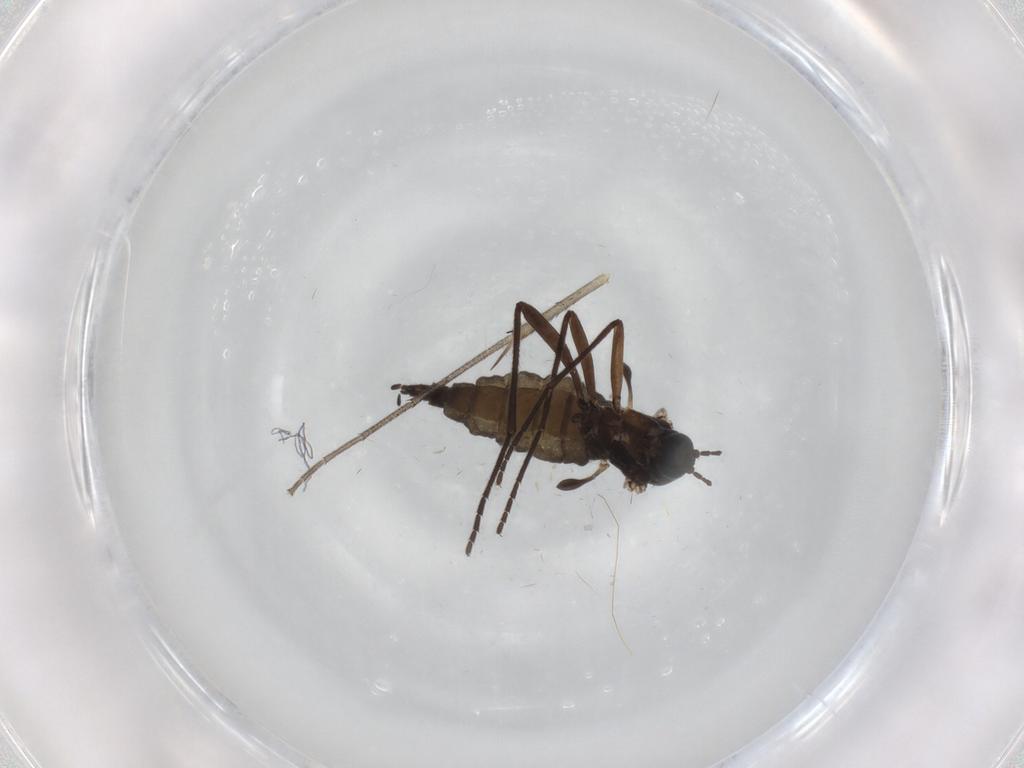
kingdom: Animalia
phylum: Arthropoda
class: Insecta
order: Diptera
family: Sciaridae
